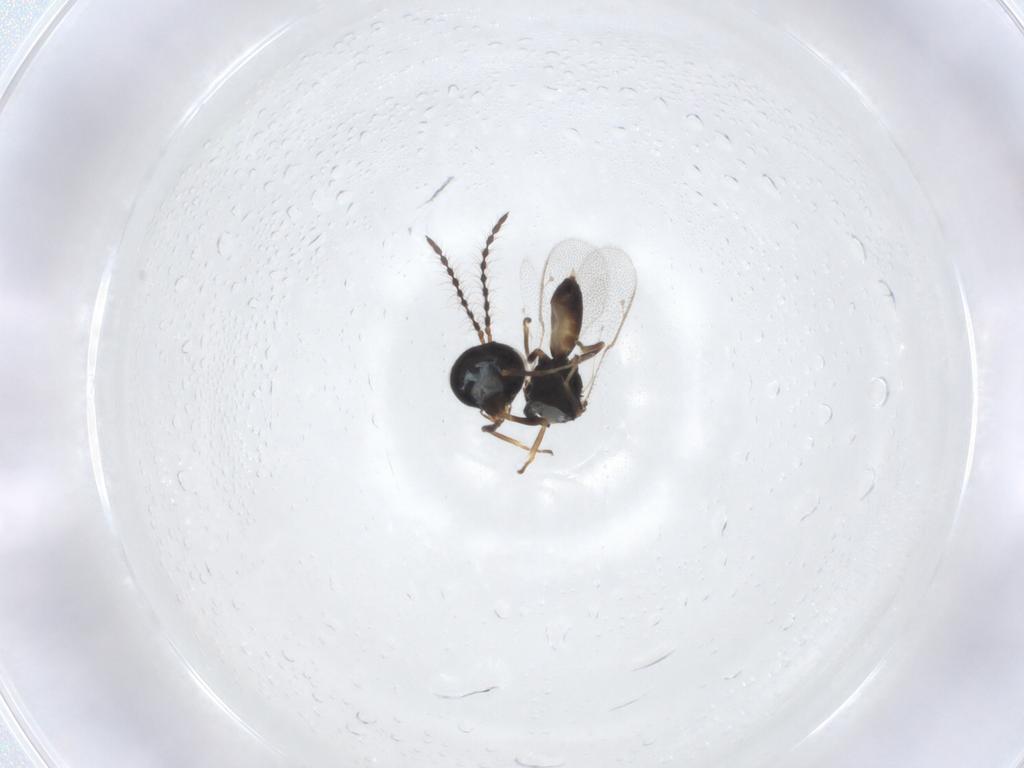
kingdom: Animalia
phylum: Arthropoda
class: Insecta
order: Hymenoptera
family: Pteromalidae
